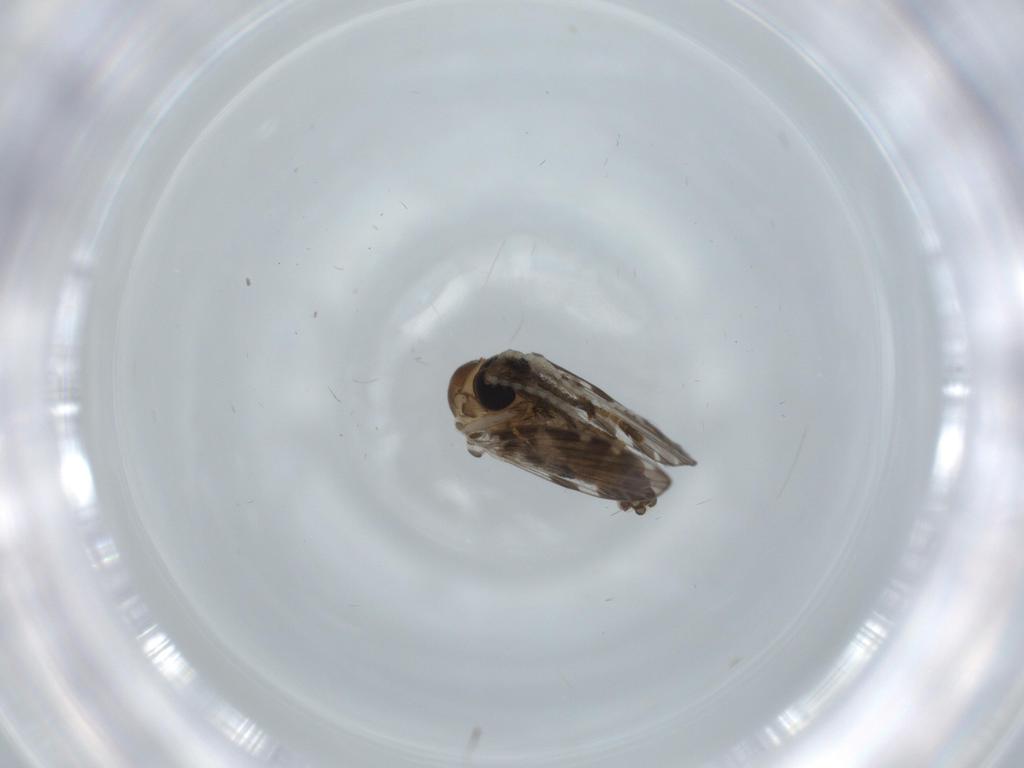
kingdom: Animalia
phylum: Arthropoda
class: Insecta
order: Diptera
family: Psychodidae
